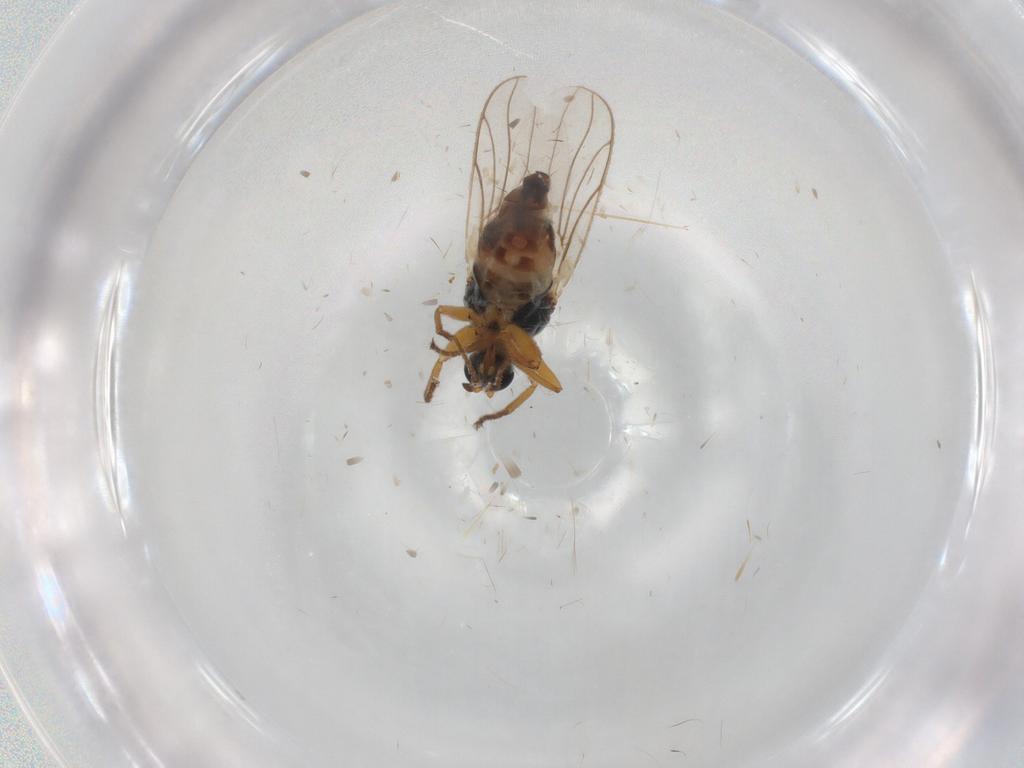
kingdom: Animalia
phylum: Arthropoda
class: Insecta
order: Diptera
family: Chloropidae
